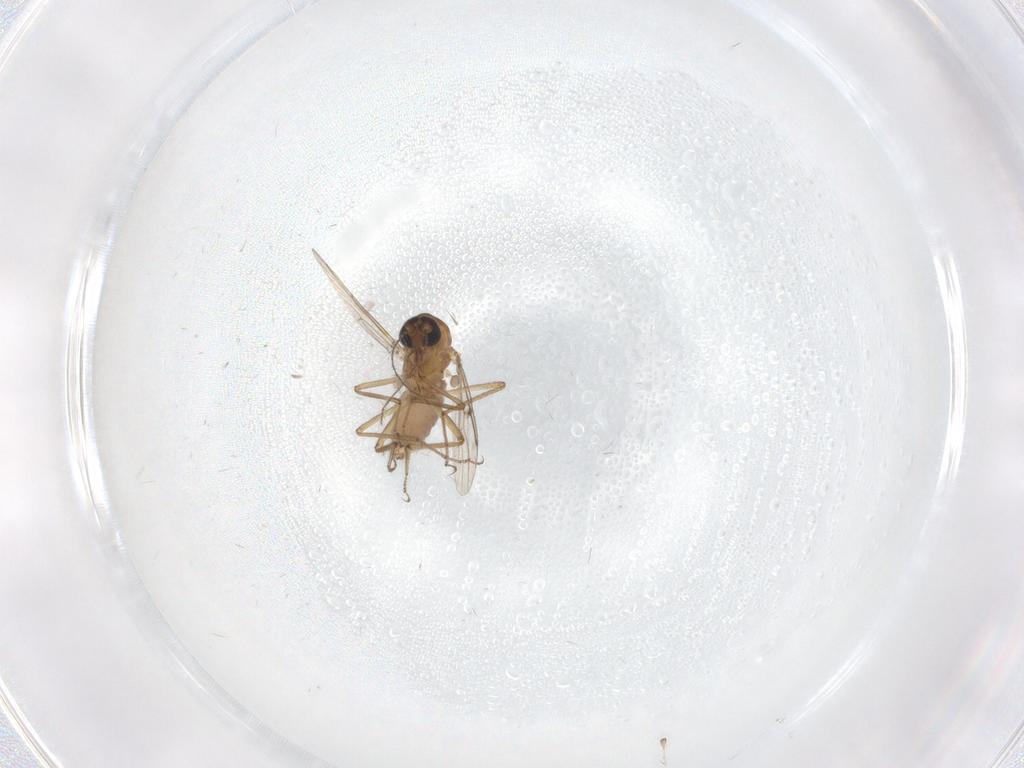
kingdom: Animalia
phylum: Arthropoda
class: Insecta
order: Diptera
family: Ceratopogonidae
